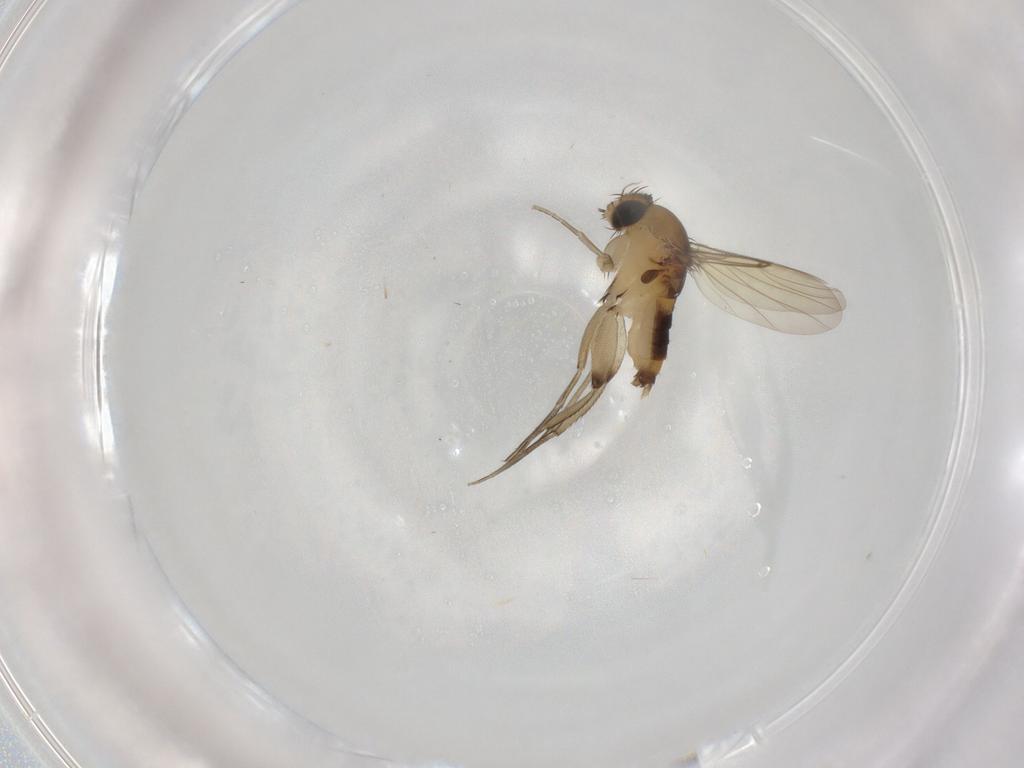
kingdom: Animalia
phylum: Arthropoda
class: Insecta
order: Diptera
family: Phoridae
